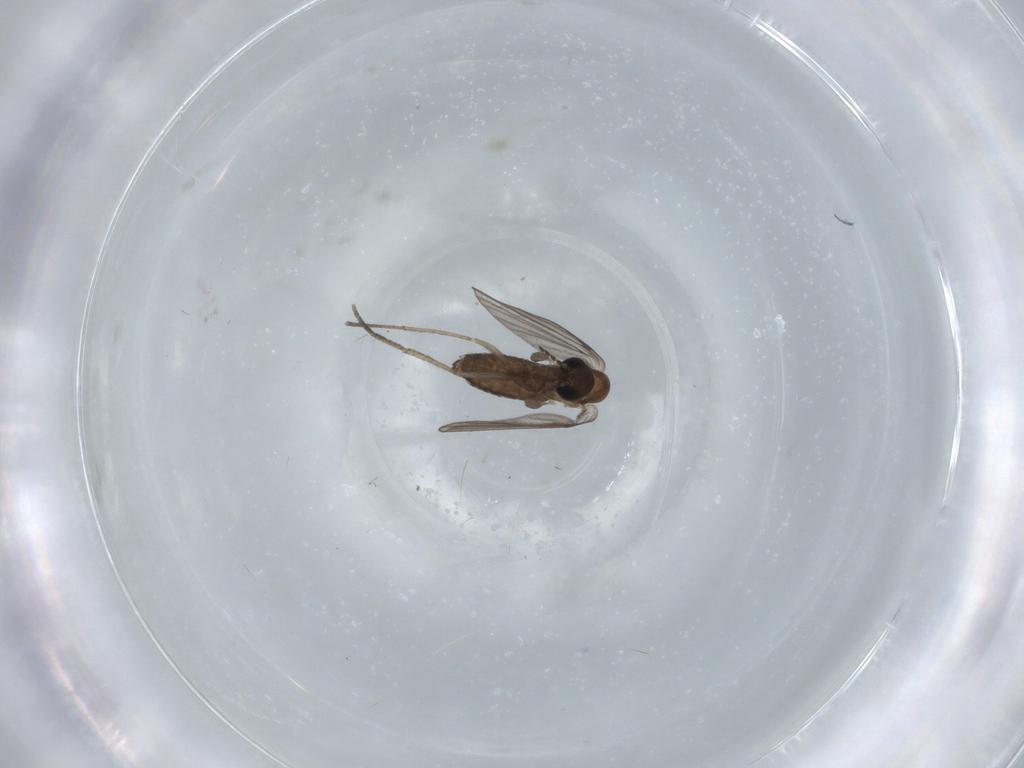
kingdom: Animalia
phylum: Arthropoda
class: Insecta
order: Diptera
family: Psychodidae
